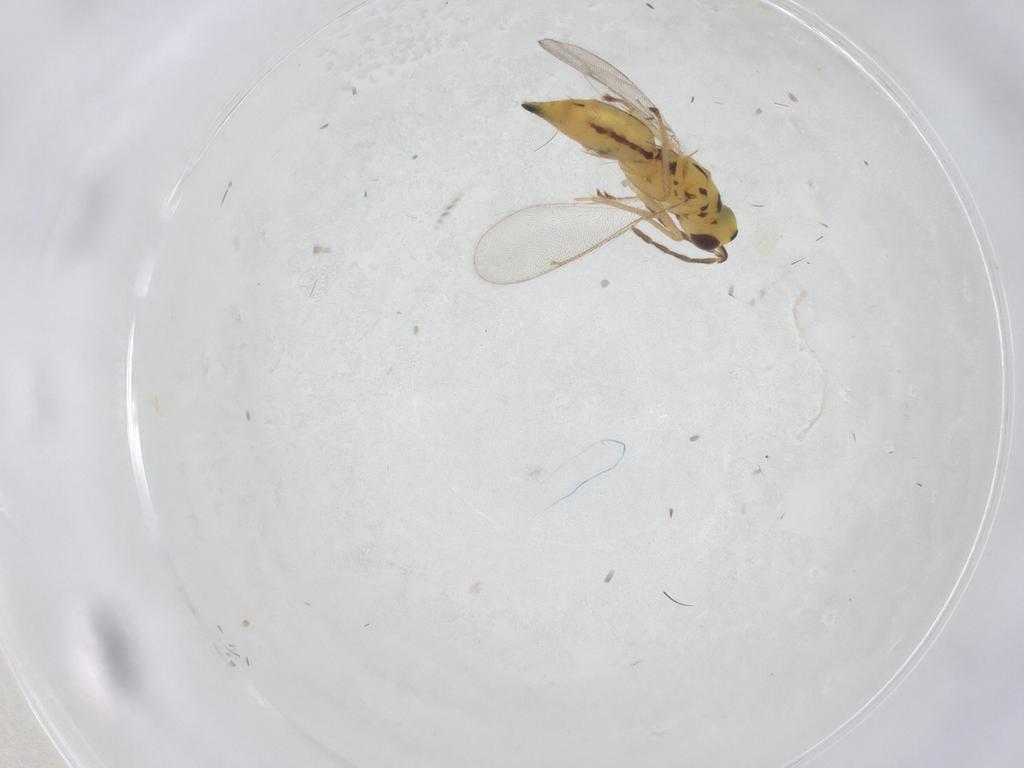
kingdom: Animalia
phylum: Arthropoda
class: Insecta
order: Hymenoptera
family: Eulophidae
